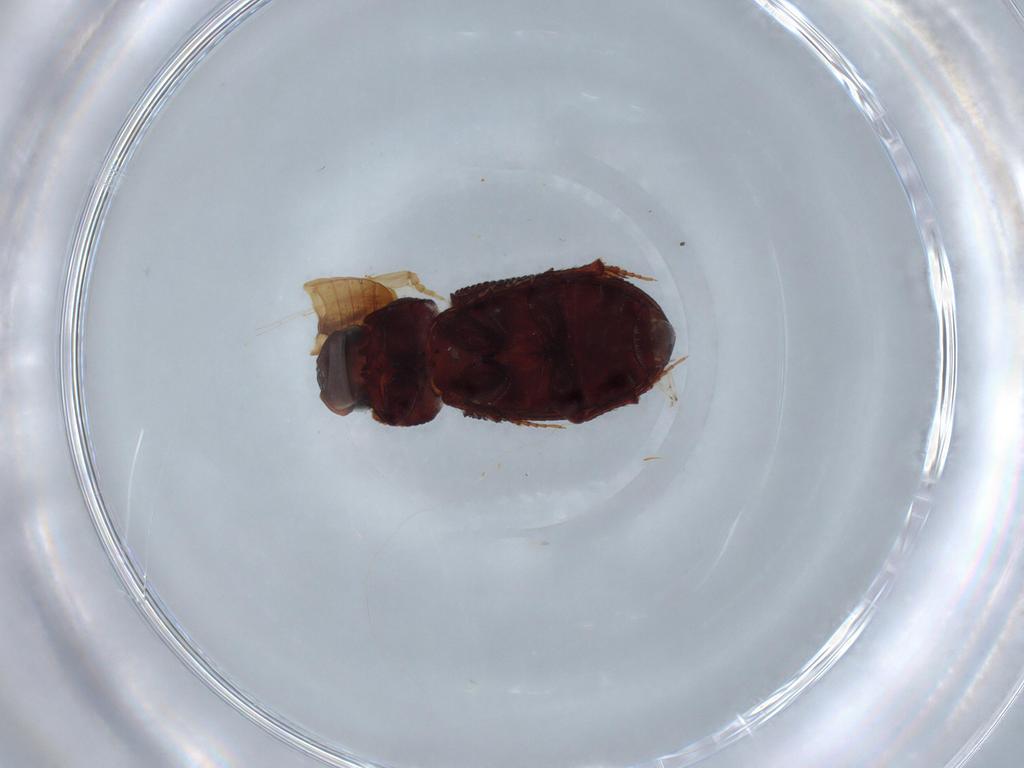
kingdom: Animalia
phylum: Arthropoda
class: Insecta
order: Coleoptera
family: Elateridae
